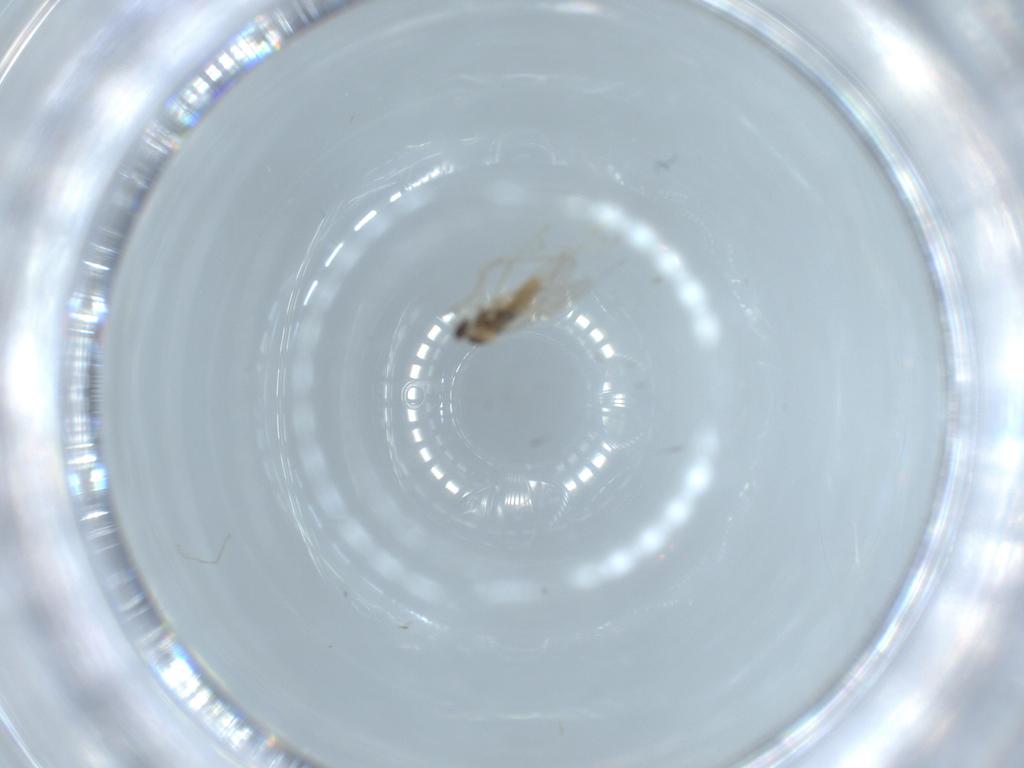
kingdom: Animalia
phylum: Arthropoda
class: Insecta
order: Diptera
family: Cecidomyiidae
